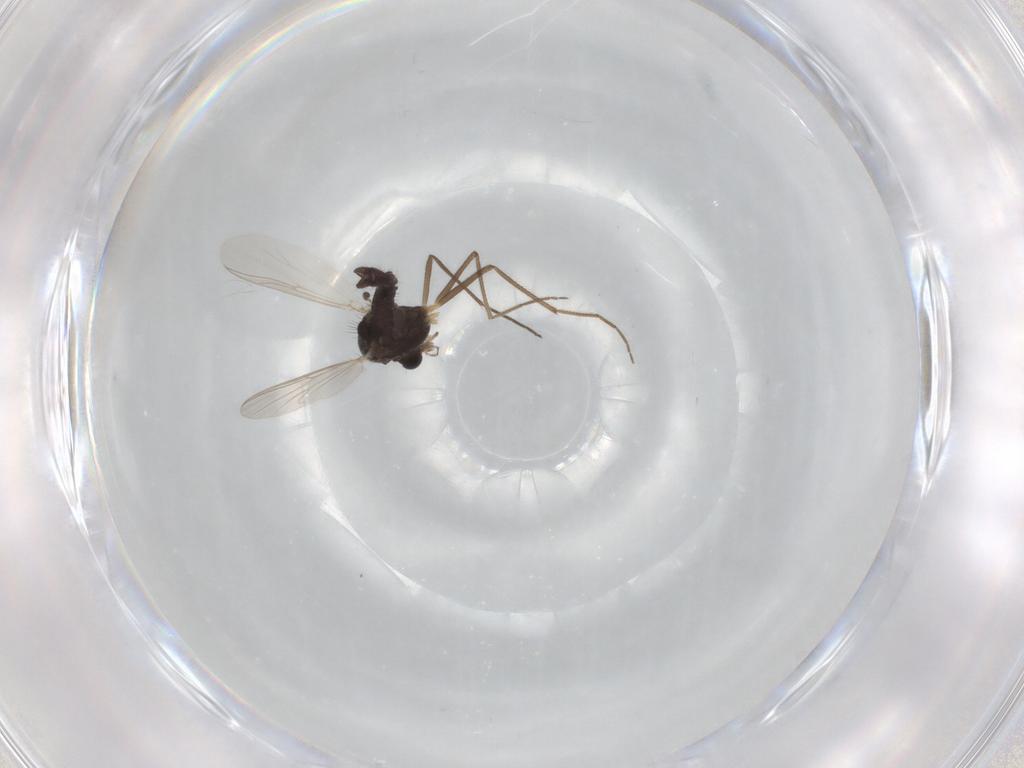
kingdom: Animalia
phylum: Arthropoda
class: Insecta
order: Diptera
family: Chironomidae
